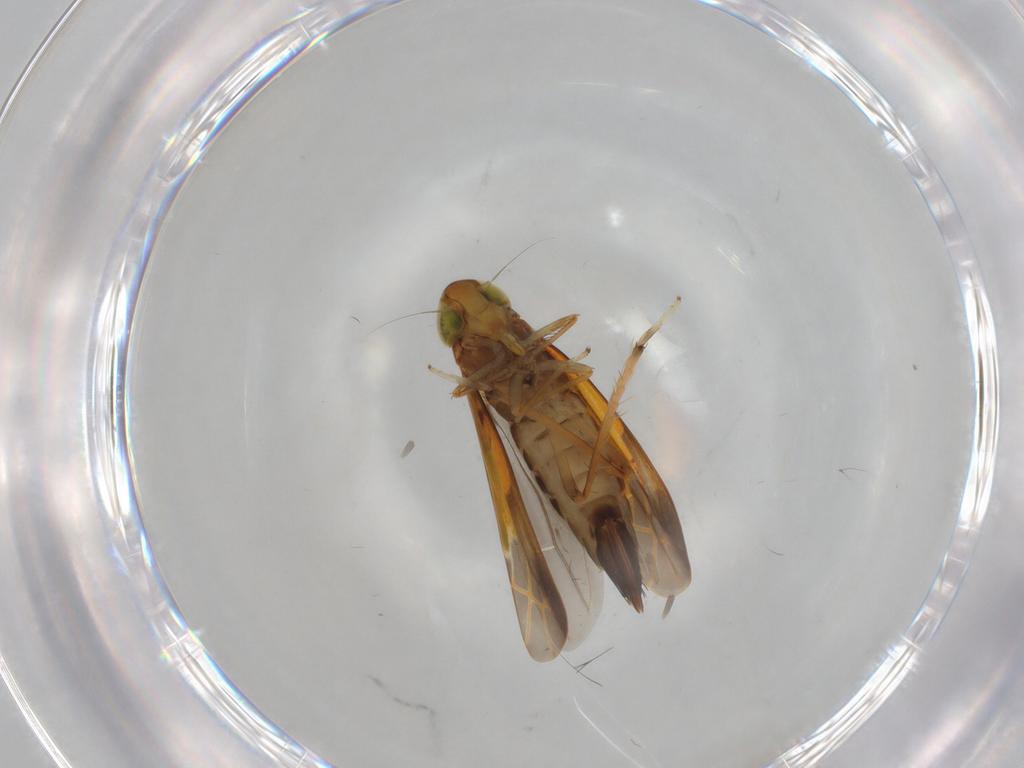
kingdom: Animalia
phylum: Arthropoda
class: Insecta
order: Hemiptera
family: Cicadellidae
